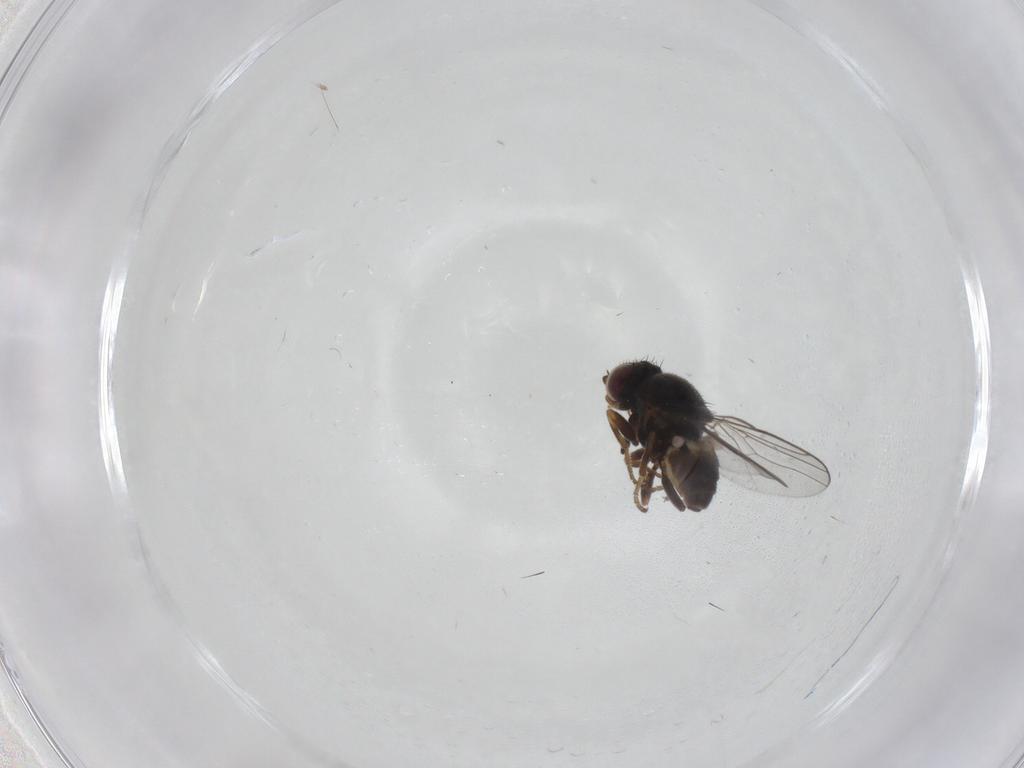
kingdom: Animalia
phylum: Arthropoda
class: Insecta
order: Diptera
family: Chloropidae
